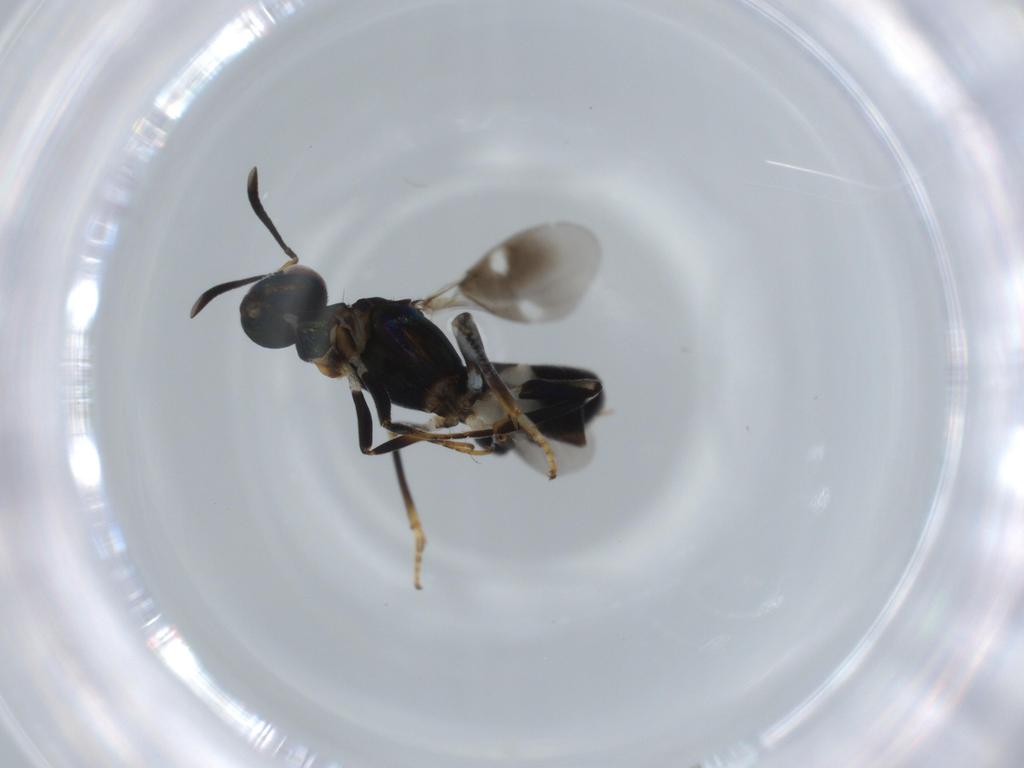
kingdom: Animalia
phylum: Arthropoda
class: Insecta
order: Hymenoptera
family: Eupelmidae
